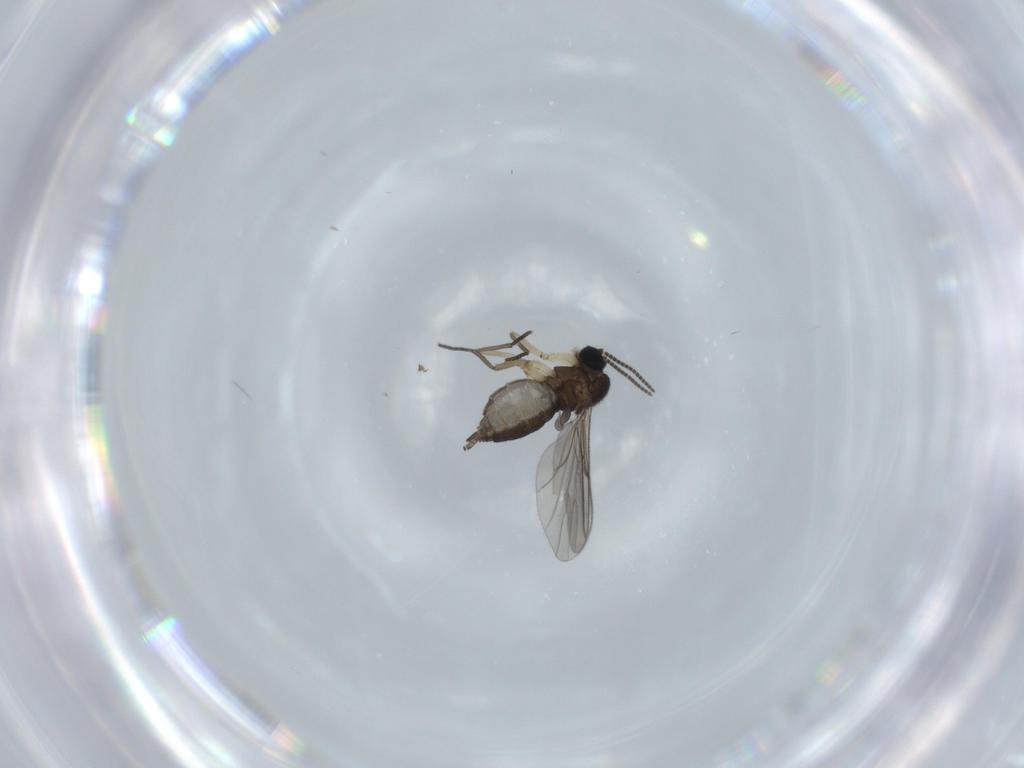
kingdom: Animalia
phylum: Arthropoda
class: Insecta
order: Diptera
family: Sciaridae
